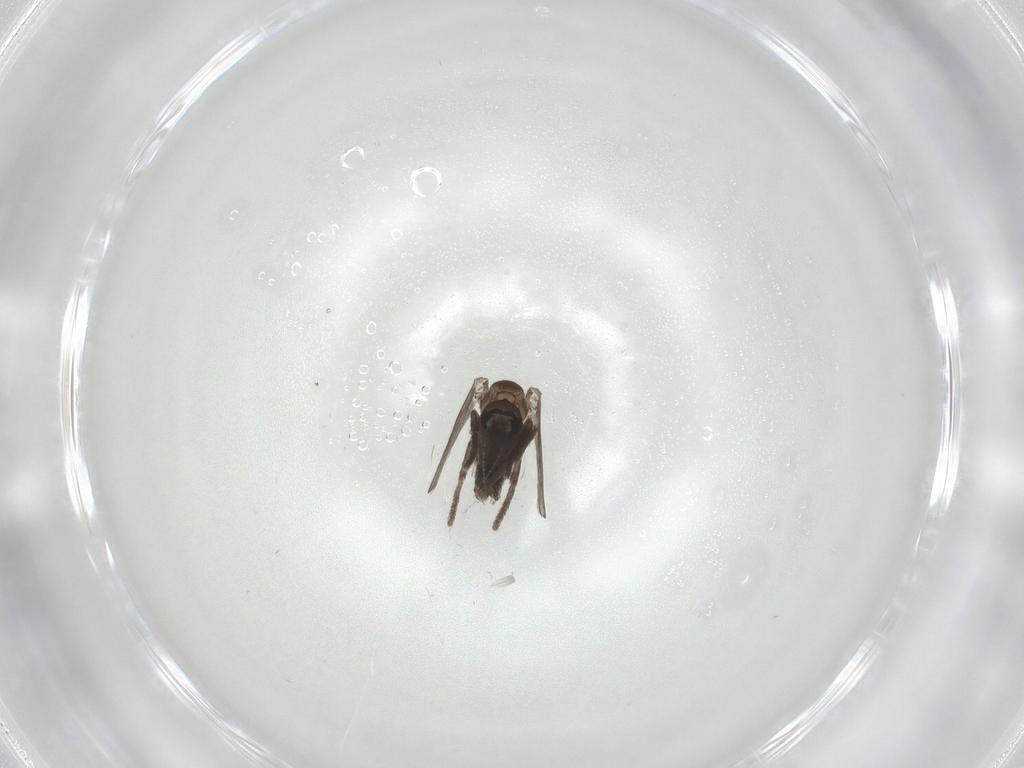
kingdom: Animalia
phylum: Arthropoda
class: Insecta
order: Diptera
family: Psychodidae
